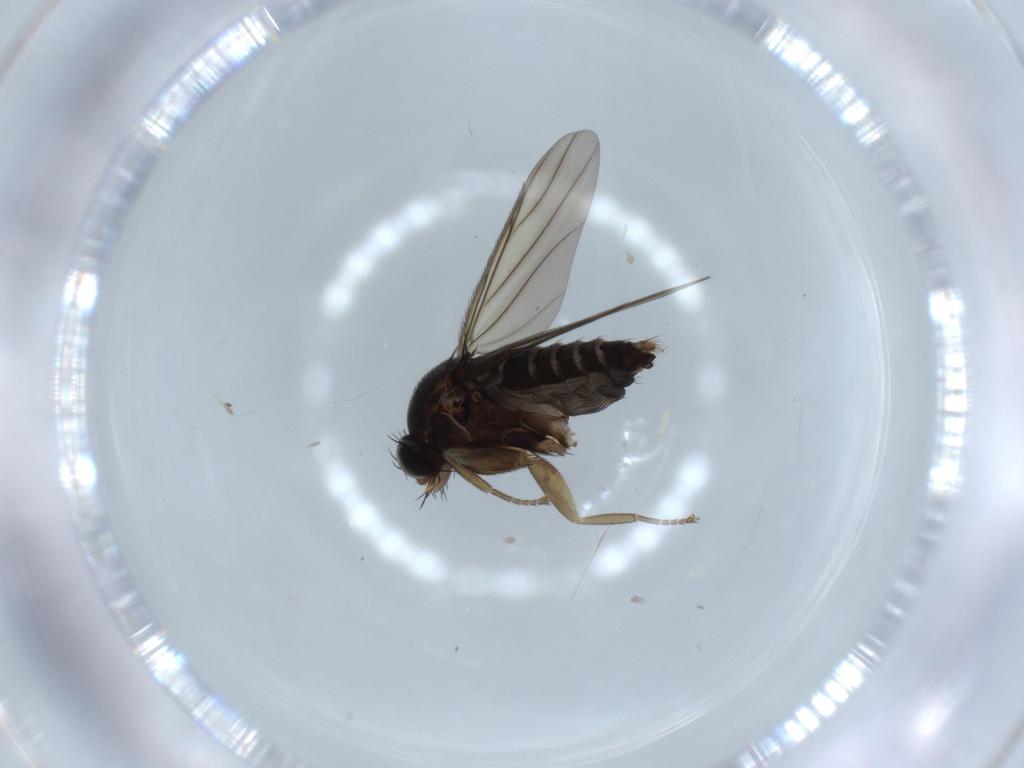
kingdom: Animalia
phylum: Arthropoda
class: Insecta
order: Diptera
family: Phoridae
